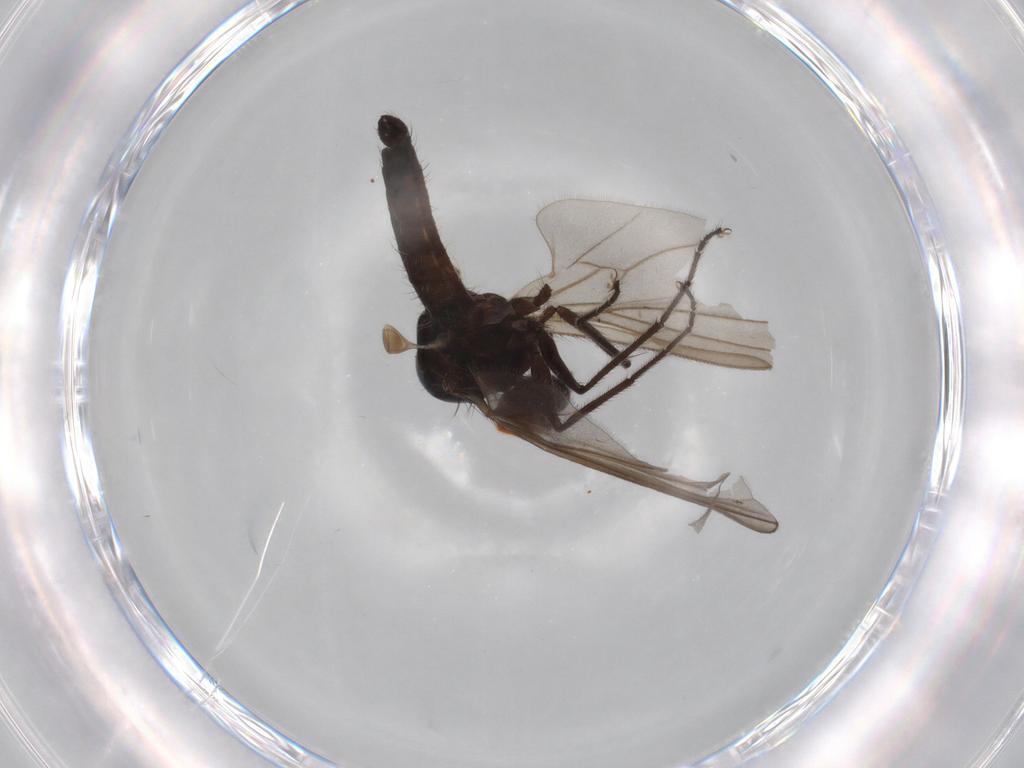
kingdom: Animalia
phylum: Arthropoda
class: Insecta
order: Diptera
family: Hybotidae
